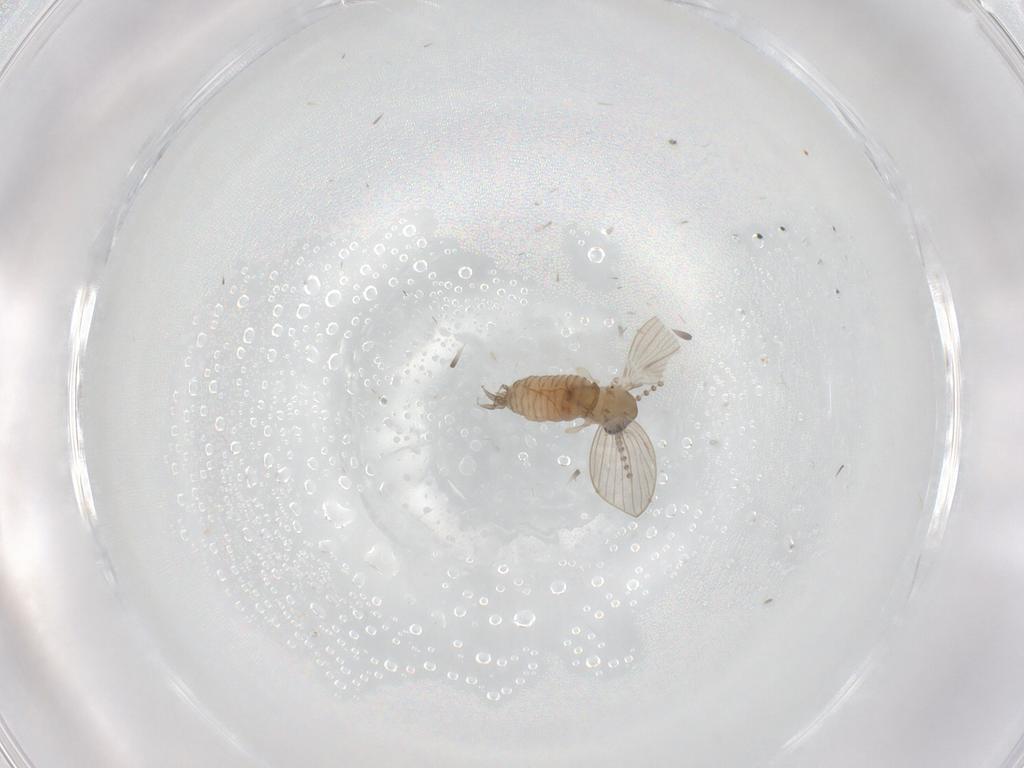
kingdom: Animalia
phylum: Arthropoda
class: Insecta
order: Diptera
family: Psychodidae
